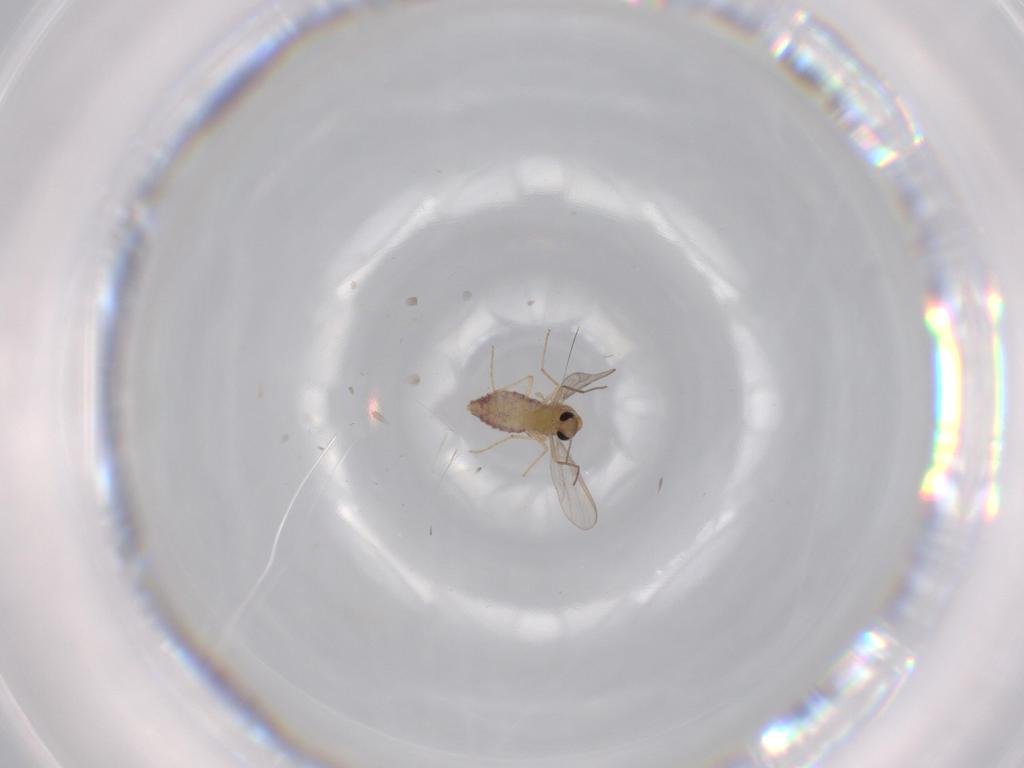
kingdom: Animalia
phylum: Arthropoda
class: Insecta
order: Diptera
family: Chironomidae
